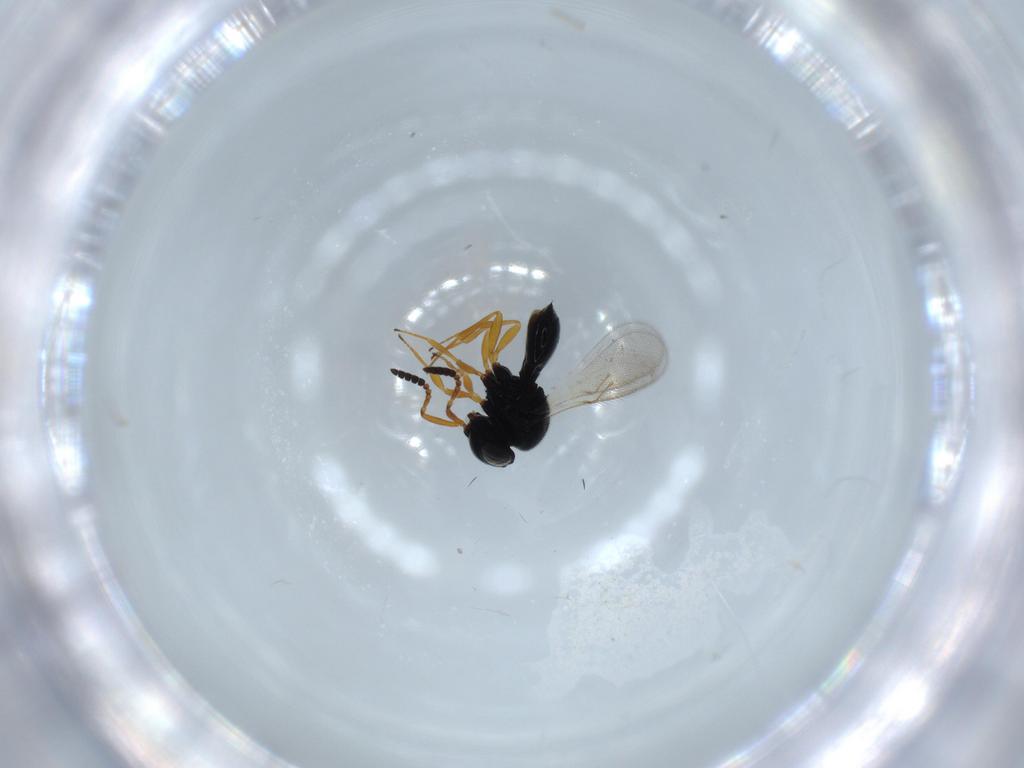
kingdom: Animalia
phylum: Arthropoda
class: Insecta
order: Hymenoptera
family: Scelionidae
